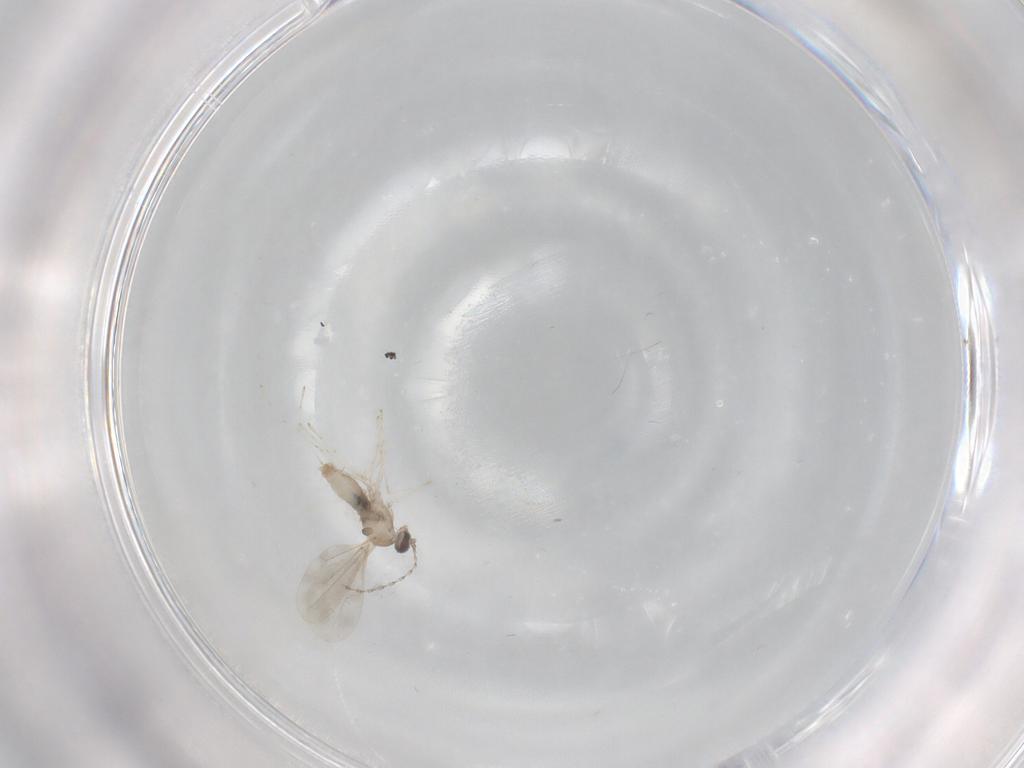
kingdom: Animalia
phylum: Arthropoda
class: Insecta
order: Diptera
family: Cecidomyiidae
